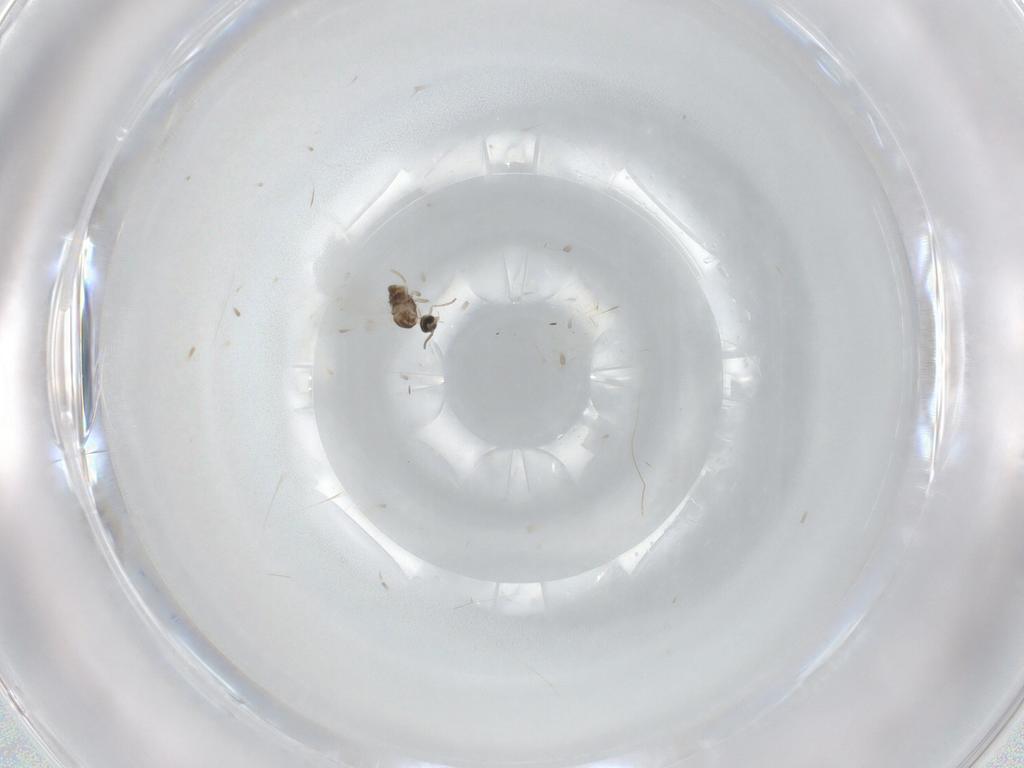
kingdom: Animalia
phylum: Arthropoda
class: Insecta
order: Diptera
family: Cecidomyiidae
